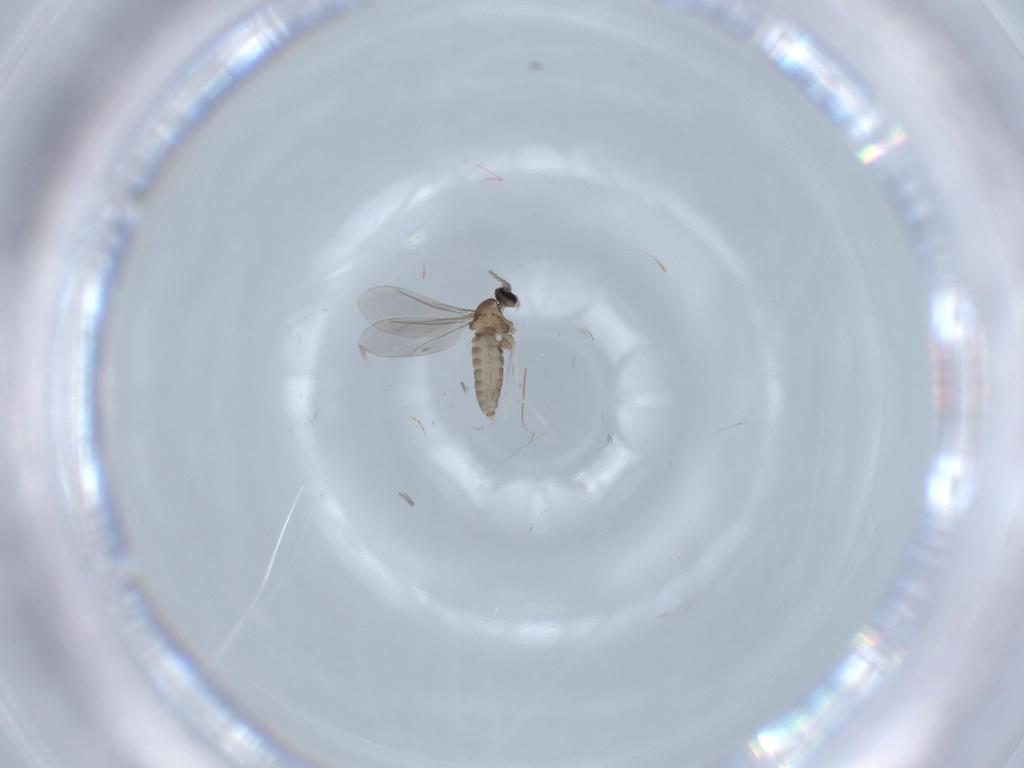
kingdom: Animalia
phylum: Arthropoda
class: Insecta
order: Diptera
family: Cecidomyiidae
